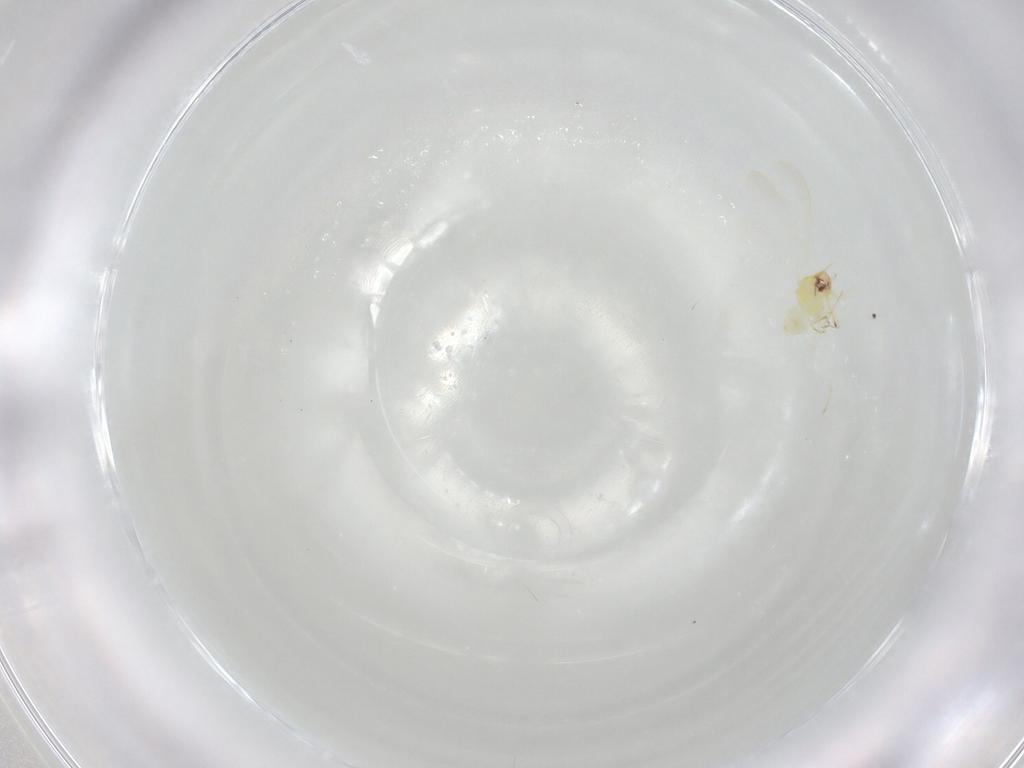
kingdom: Animalia
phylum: Arthropoda
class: Insecta
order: Hemiptera
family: Aleyrodidae
